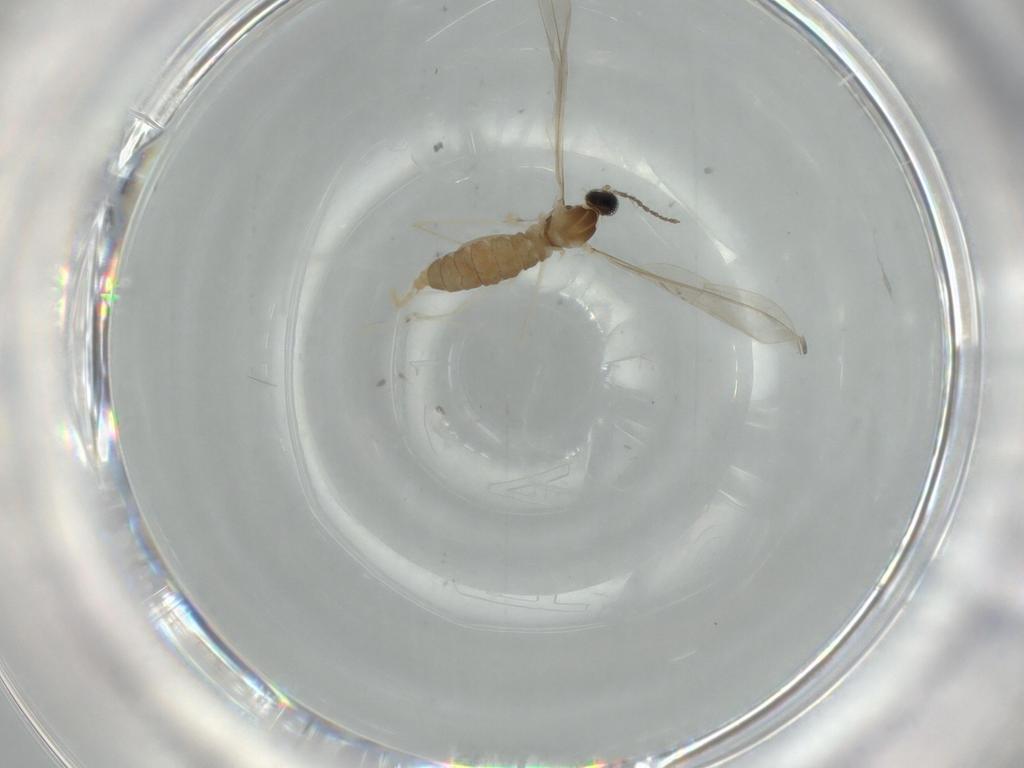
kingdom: Animalia
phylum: Arthropoda
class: Insecta
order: Diptera
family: Cecidomyiidae
